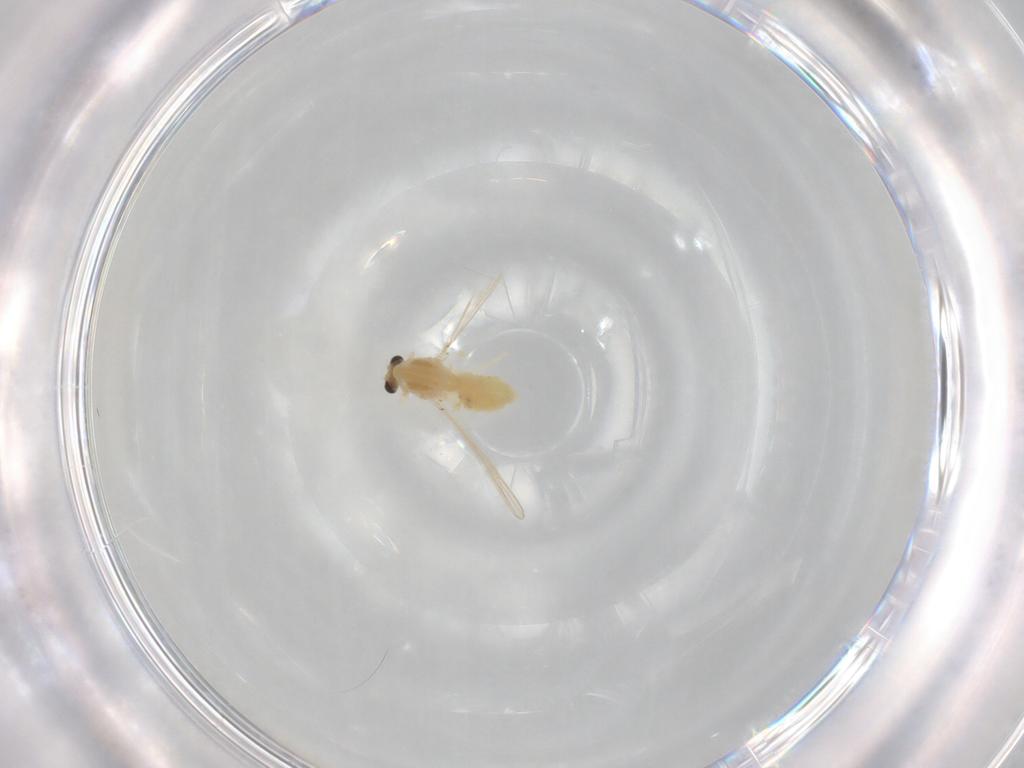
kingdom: Animalia
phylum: Arthropoda
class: Insecta
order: Diptera
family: Chironomidae
